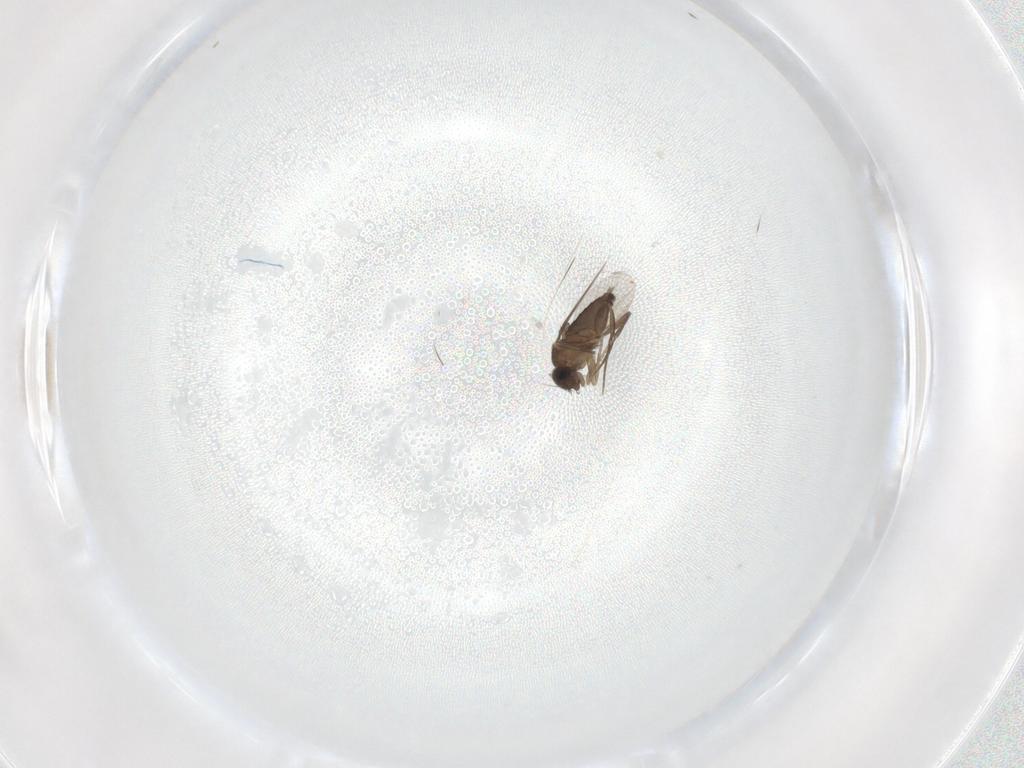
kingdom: Animalia
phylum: Arthropoda
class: Insecta
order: Diptera
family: Phoridae
